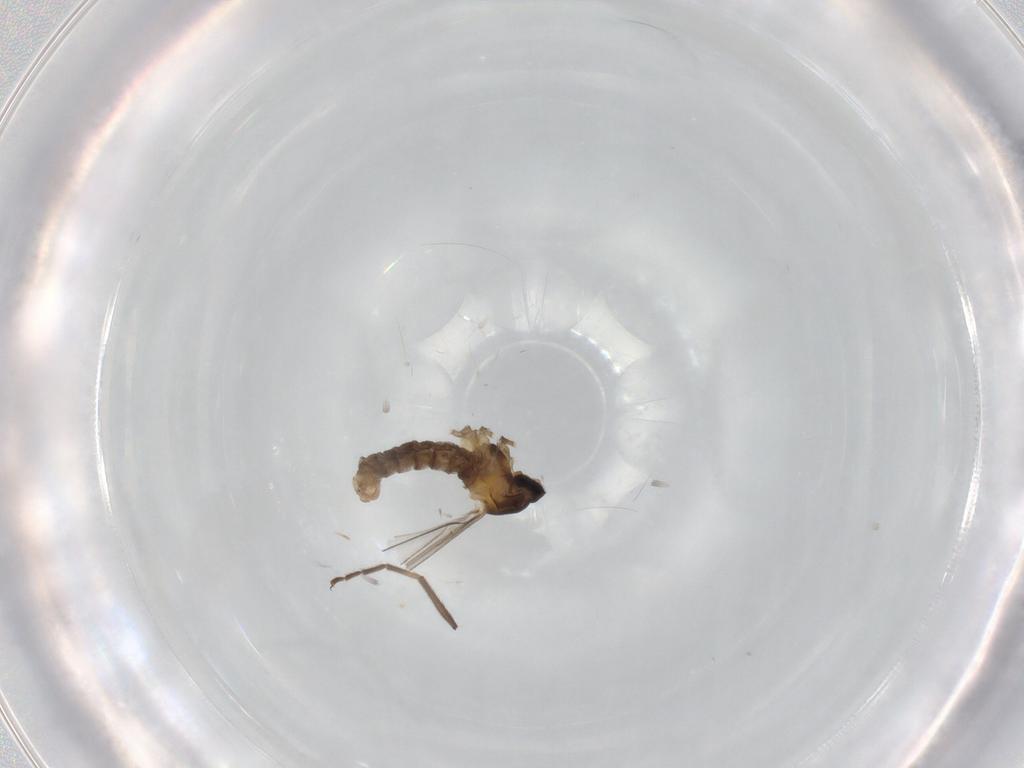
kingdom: Animalia
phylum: Arthropoda
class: Insecta
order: Diptera
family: Cecidomyiidae
